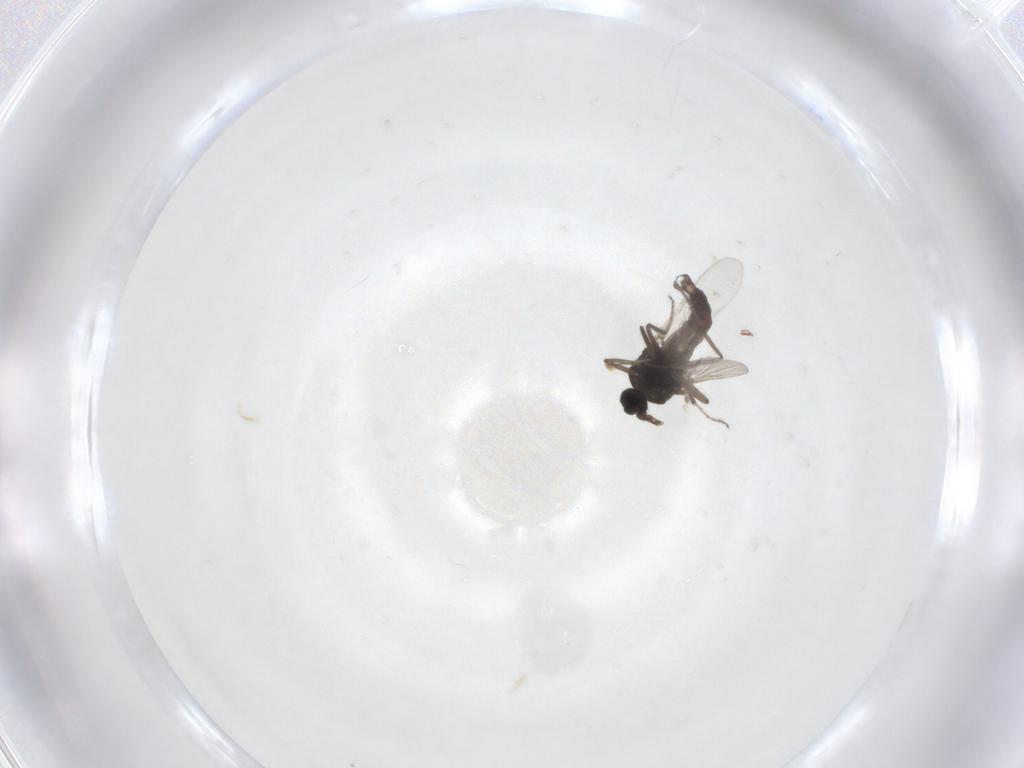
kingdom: Animalia
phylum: Arthropoda
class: Insecta
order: Diptera
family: Ceratopogonidae
